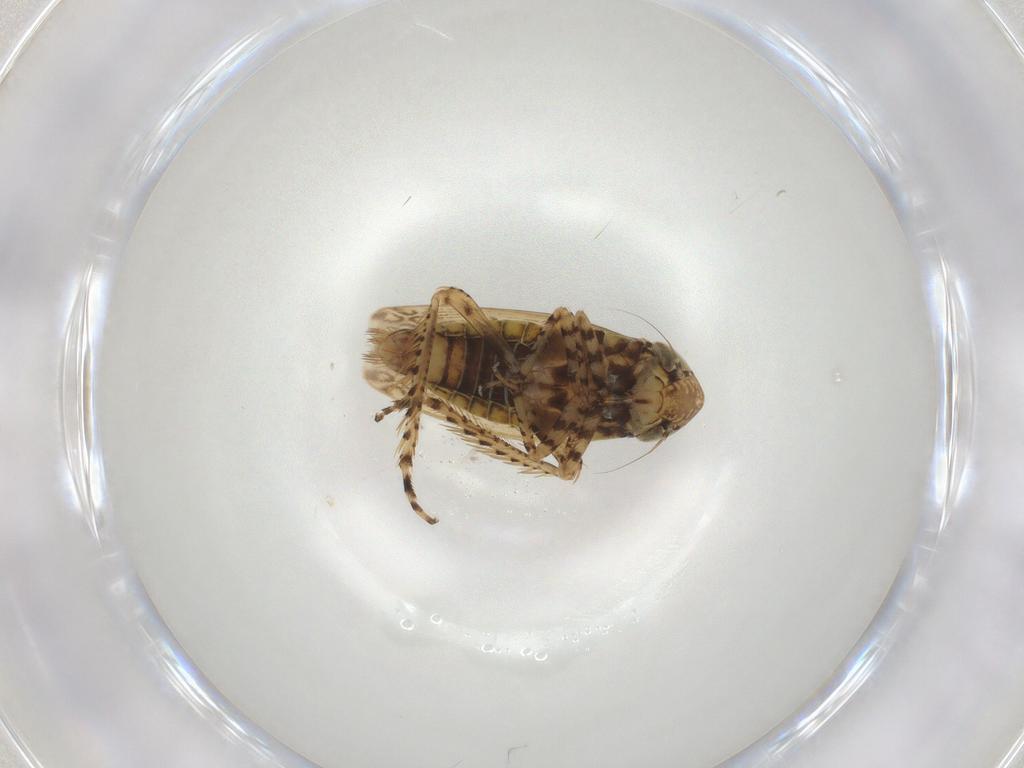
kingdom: Animalia
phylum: Arthropoda
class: Insecta
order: Hemiptera
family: Cicadellidae
